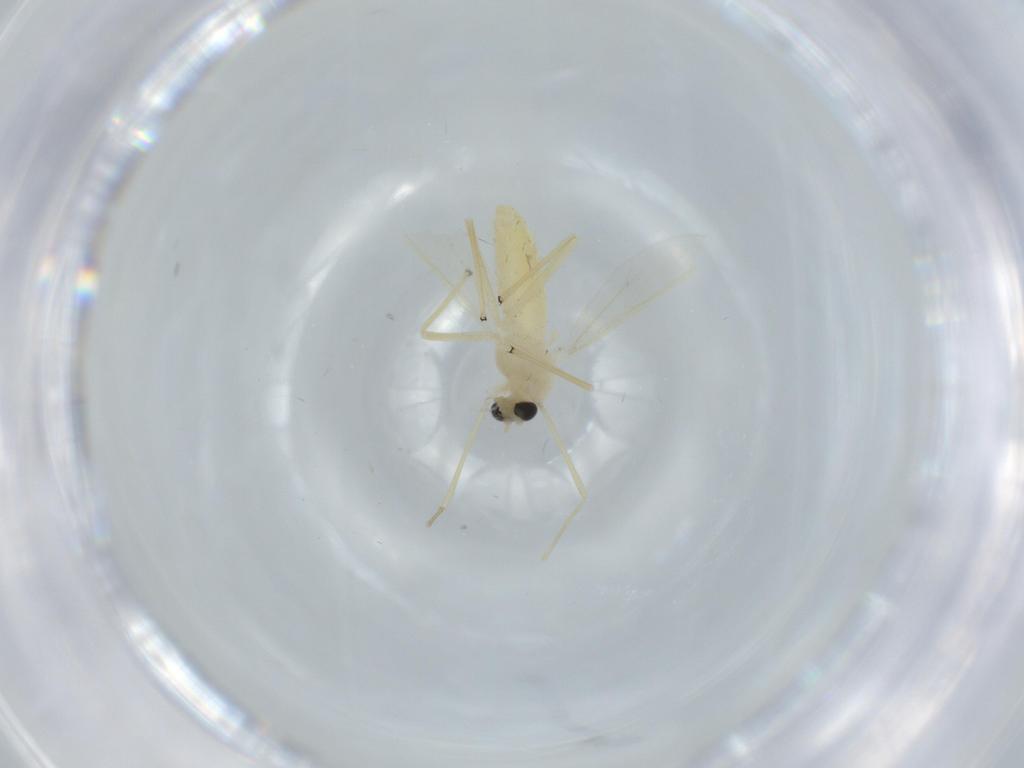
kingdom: Animalia
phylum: Arthropoda
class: Insecta
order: Diptera
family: Chironomidae
